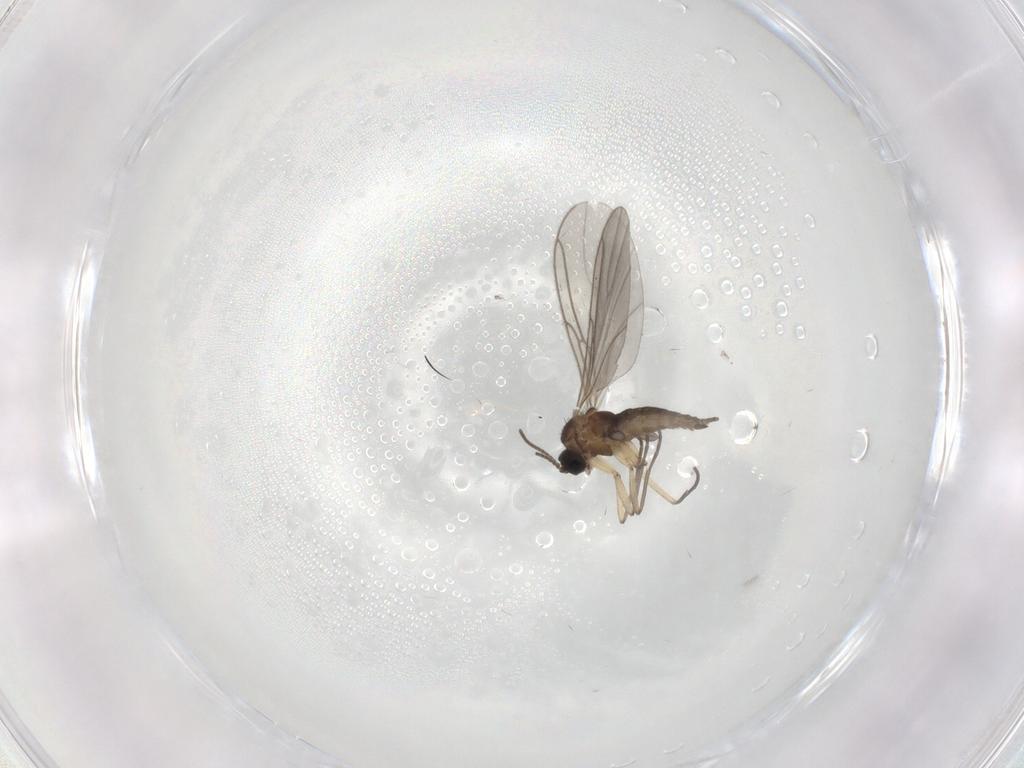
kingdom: Animalia
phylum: Arthropoda
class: Insecta
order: Diptera
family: Sciaridae
